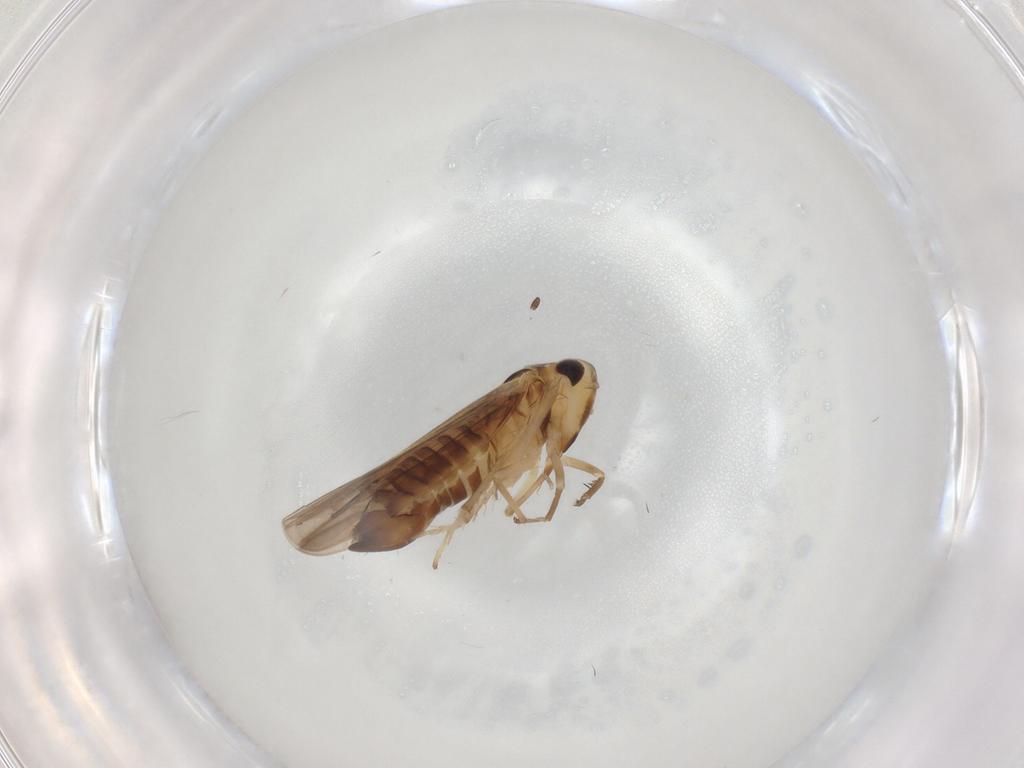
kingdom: Animalia
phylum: Arthropoda
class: Insecta
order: Hemiptera
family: Cicadellidae
